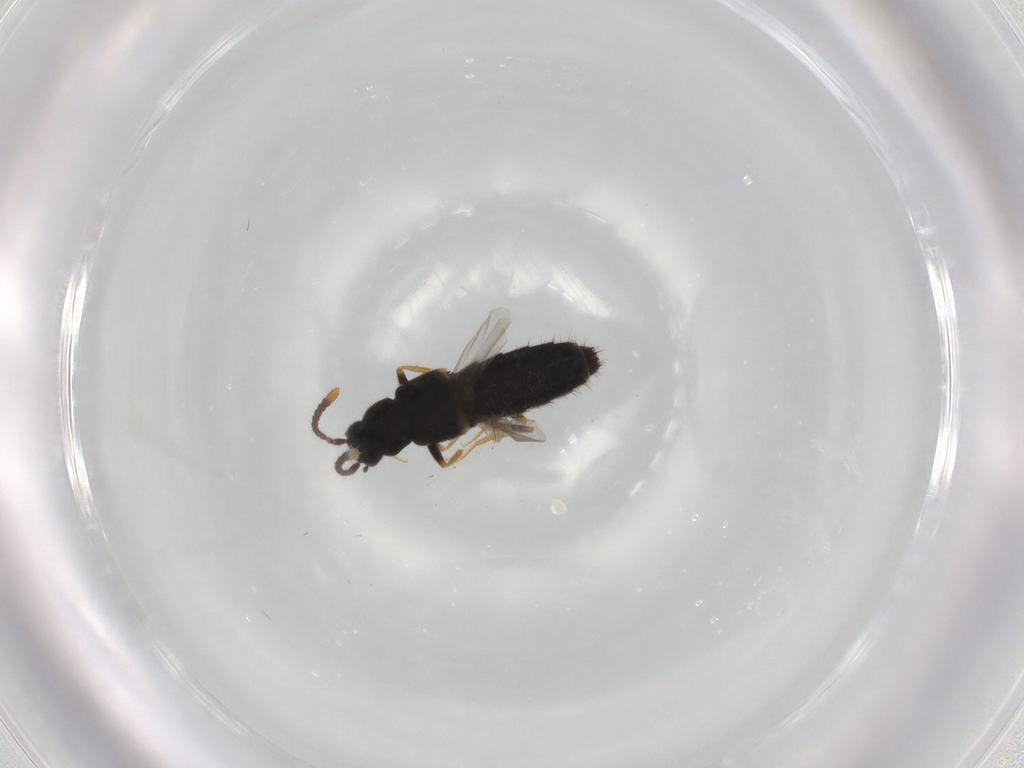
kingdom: Animalia
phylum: Arthropoda
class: Insecta
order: Coleoptera
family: Staphylinidae
